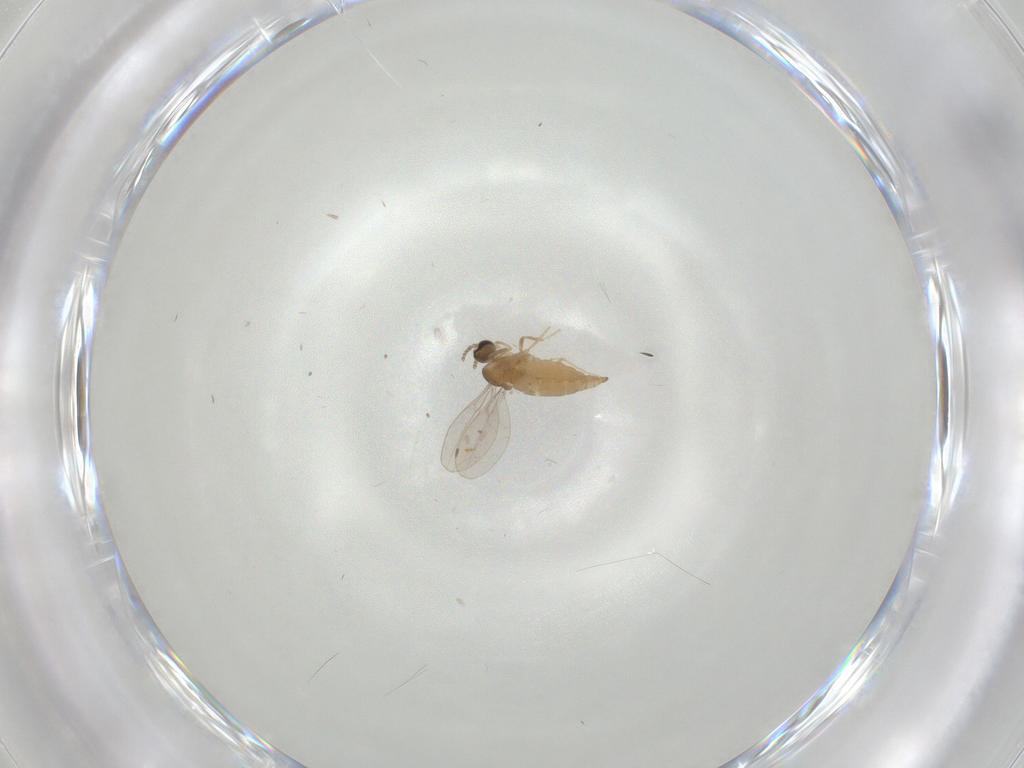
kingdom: Animalia
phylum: Arthropoda
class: Insecta
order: Diptera
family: Cecidomyiidae
